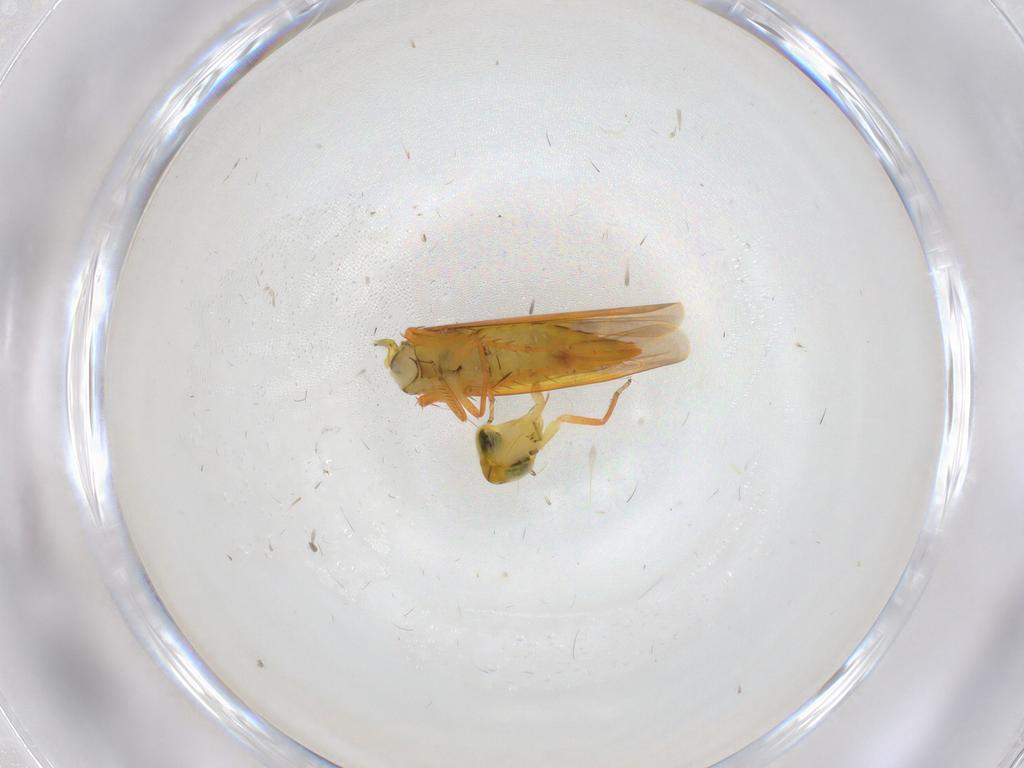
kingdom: Animalia
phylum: Arthropoda
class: Insecta
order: Hemiptera
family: Cicadellidae
